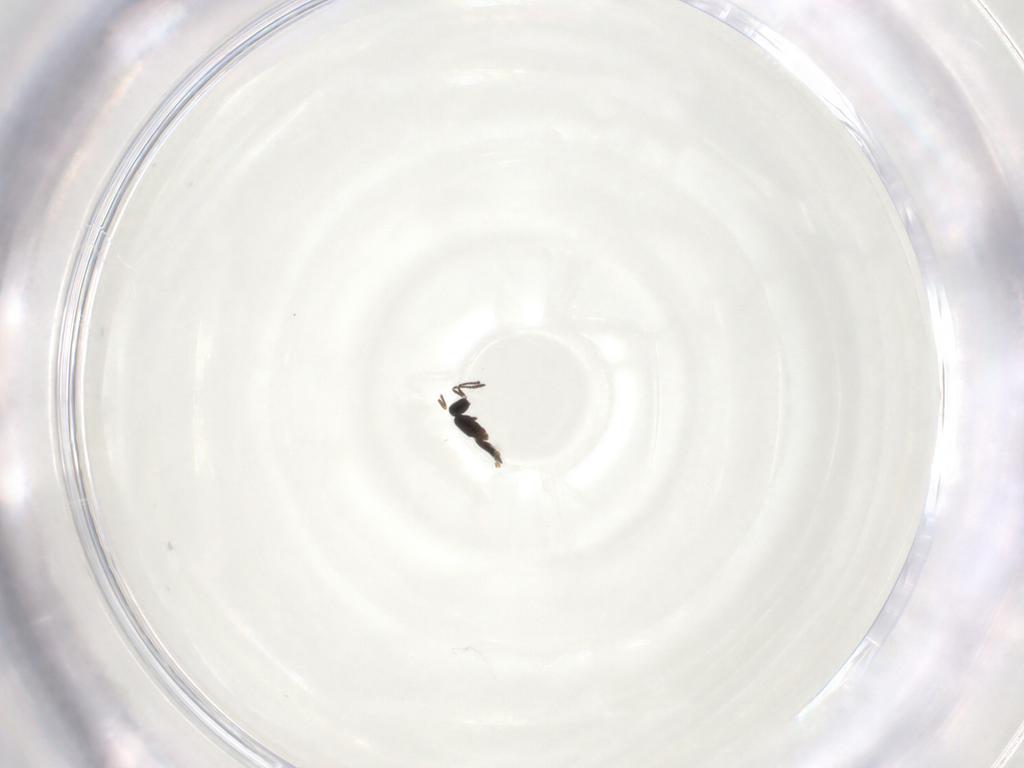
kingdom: Animalia
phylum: Arthropoda
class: Insecta
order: Hymenoptera
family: Scelionidae
